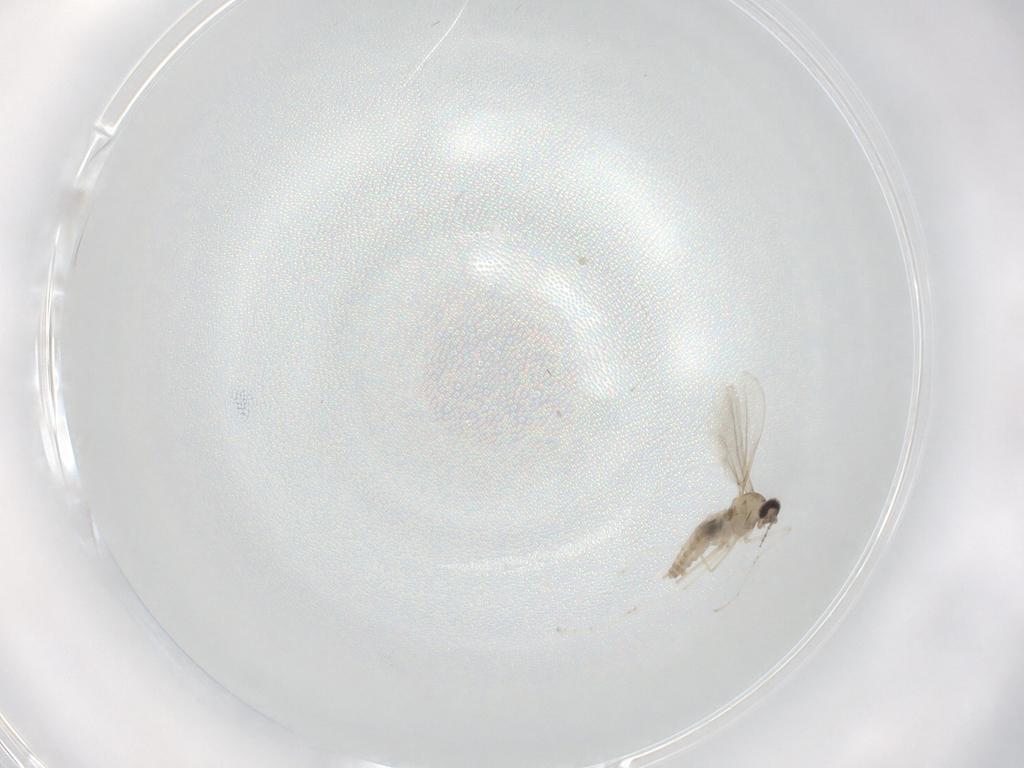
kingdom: Animalia
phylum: Arthropoda
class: Insecta
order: Diptera
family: Cecidomyiidae
